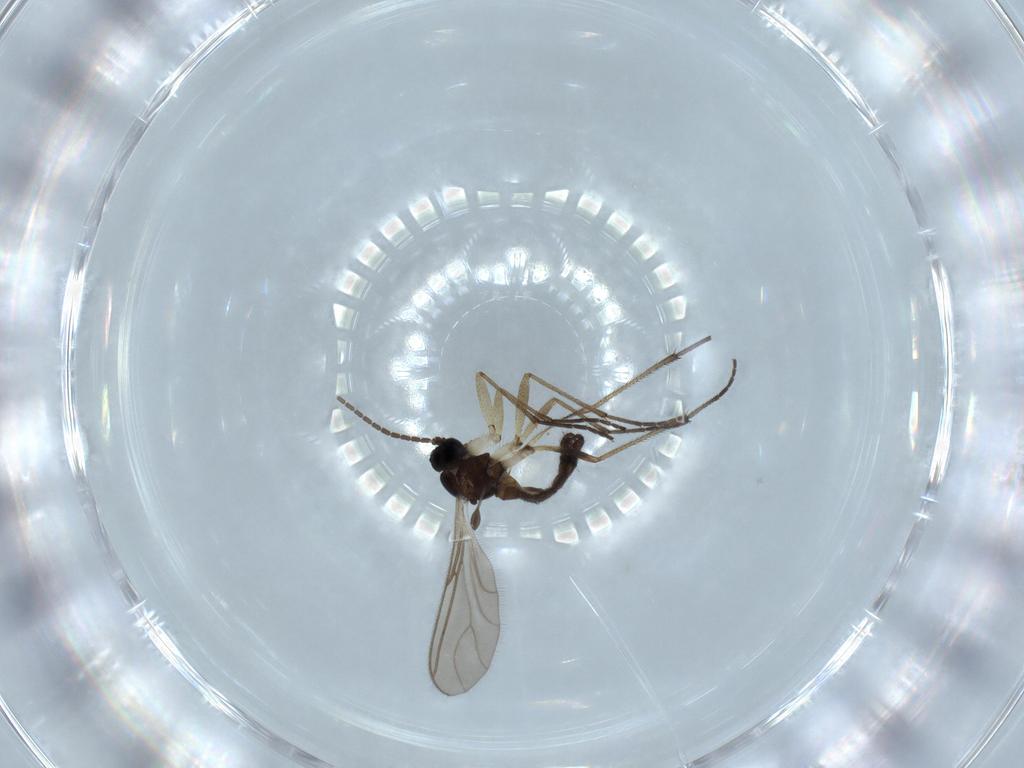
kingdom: Animalia
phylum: Arthropoda
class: Insecta
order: Diptera
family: Sciaridae
